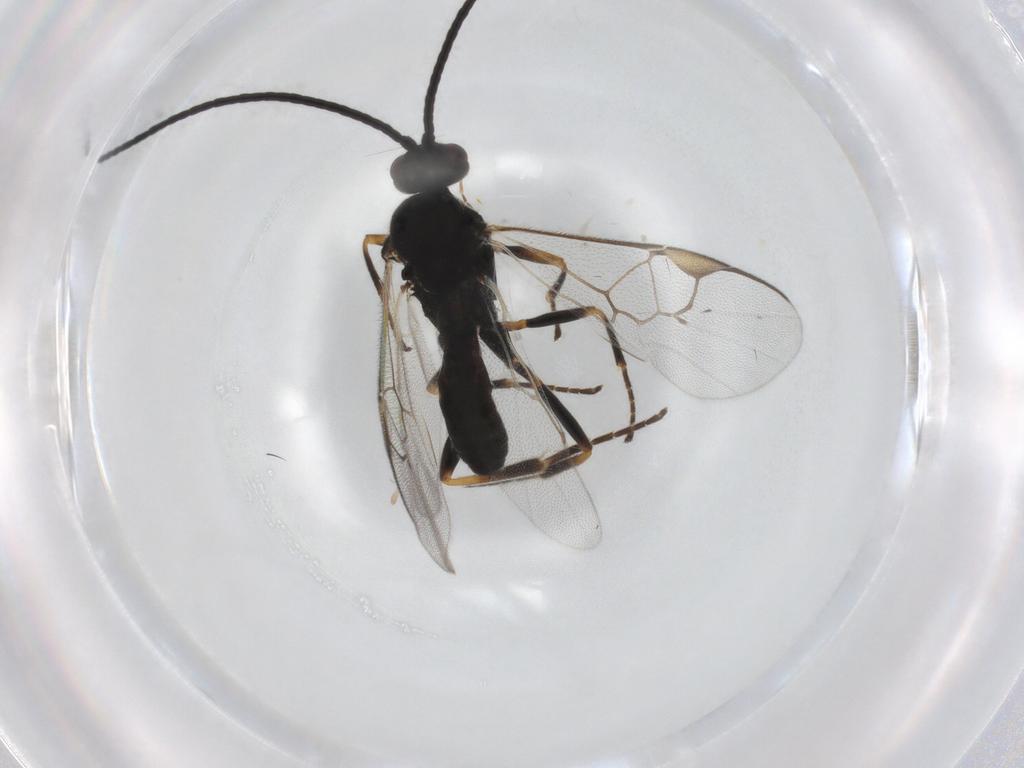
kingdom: Animalia
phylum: Arthropoda
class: Insecta
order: Hymenoptera
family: Braconidae
